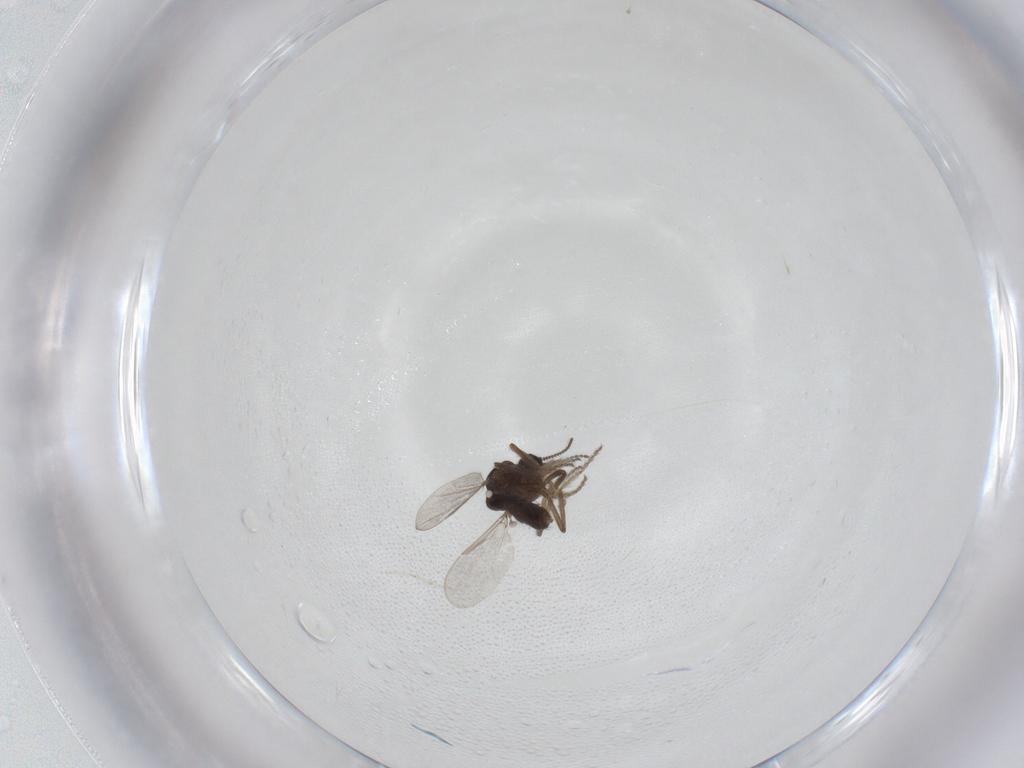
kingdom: Animalia
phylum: Arthropoda
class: Insecta
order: Diptera
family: Ceratopogonidae
